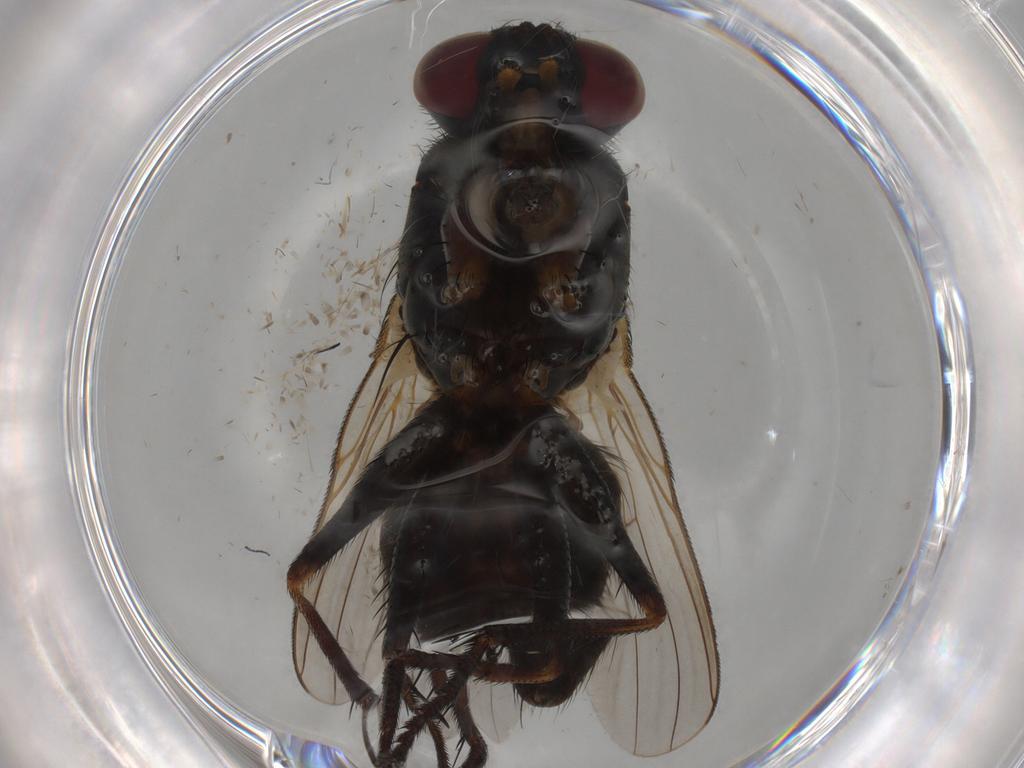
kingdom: Animalia
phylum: Arthropoda
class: Insecta
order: Diptera
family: Muscidae
